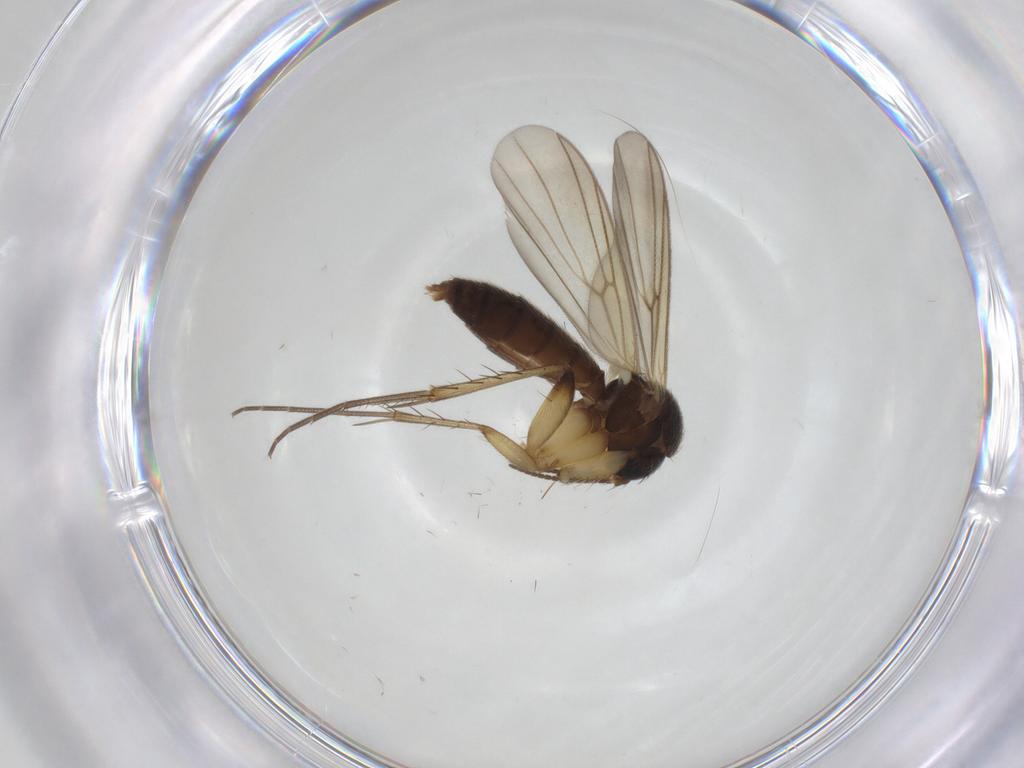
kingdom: Animalia
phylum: Arthropoda
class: Insecta
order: Diptera
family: Mycetophilidae
